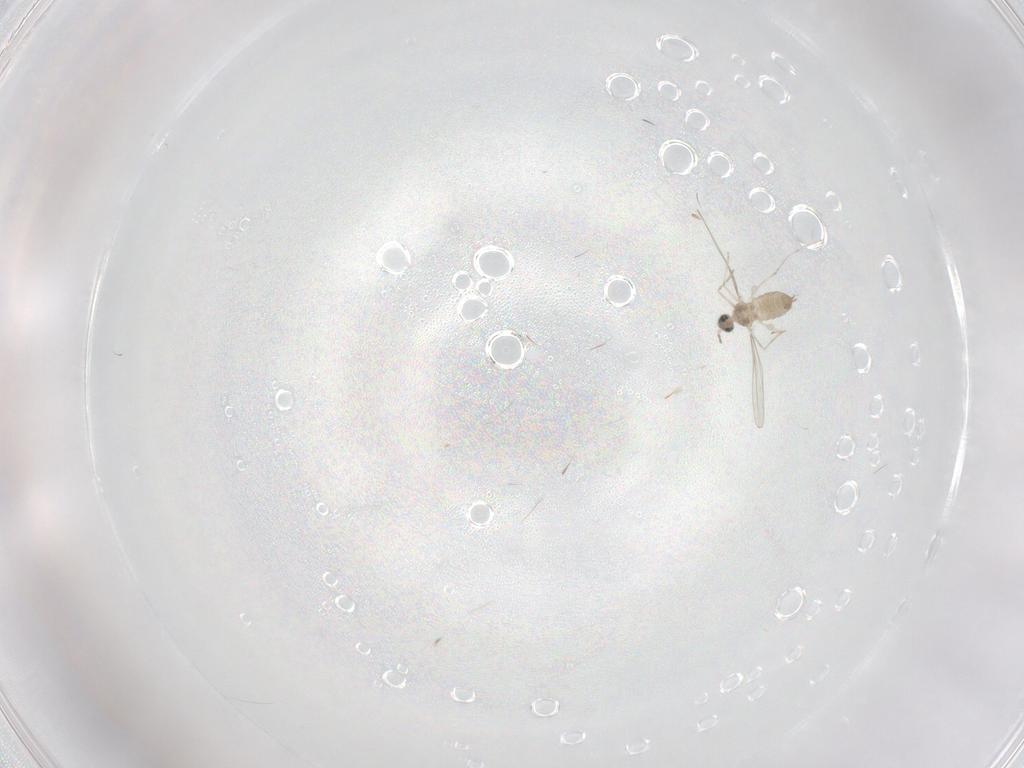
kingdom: Animalia
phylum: Arthropoda
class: Insecta
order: Diptera
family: Cecidomyiidae
